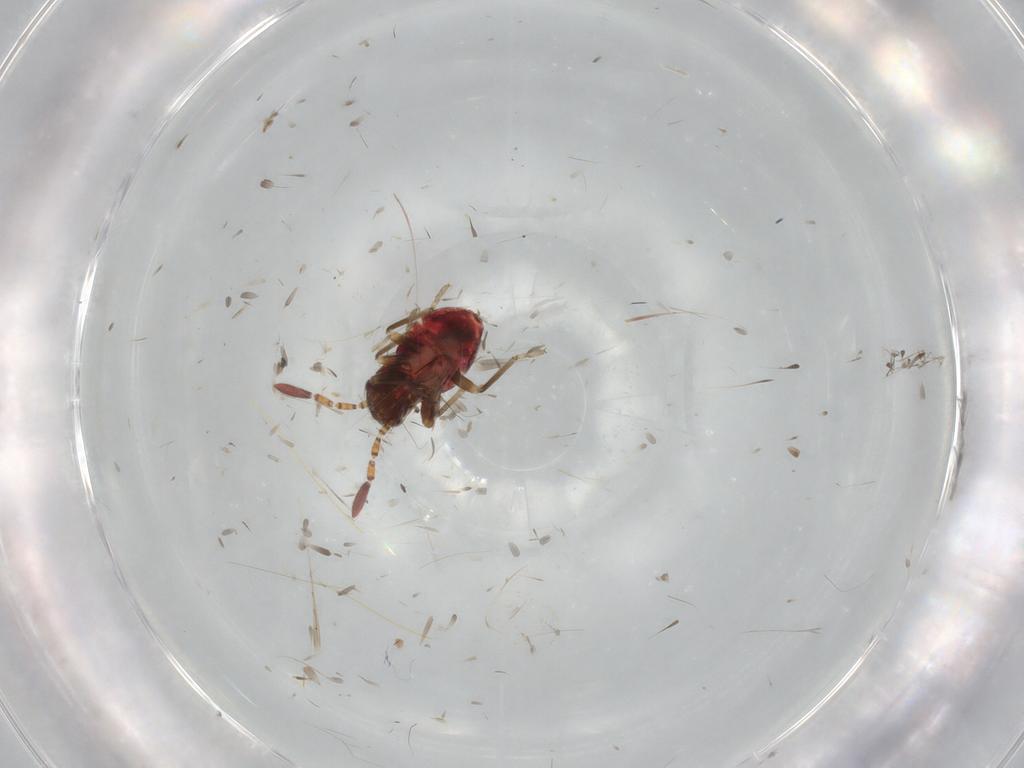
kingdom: Animalia
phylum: Arthropoda
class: Insecta
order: Hemiptera
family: Rhyparochromidae
